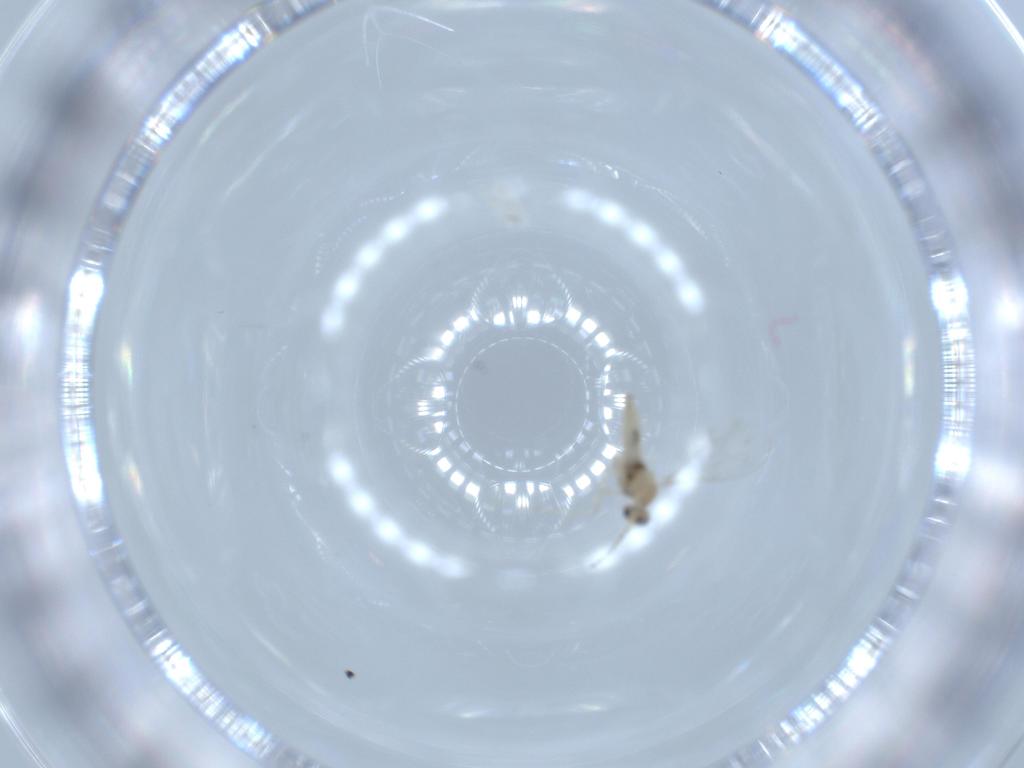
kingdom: Animalia
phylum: Arthropoda
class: Insecta
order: Diptera
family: Cecidomyiidae
